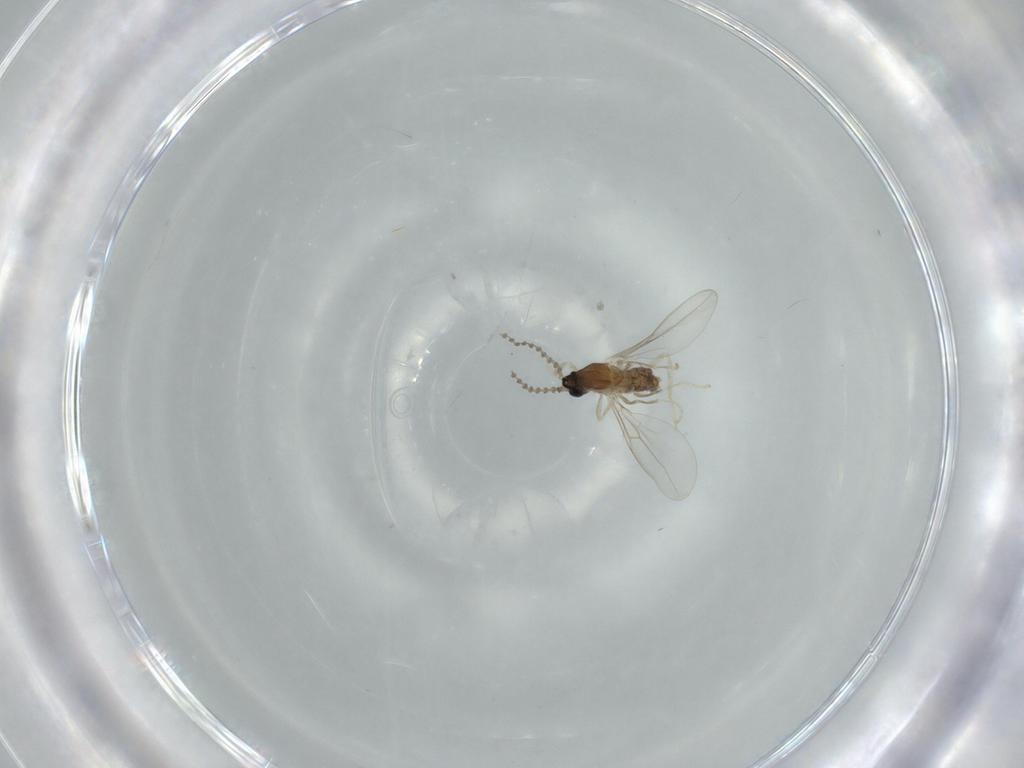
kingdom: Animalia
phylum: Arthropoda
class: Insecta
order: Diptera
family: Cecidomyiidae
